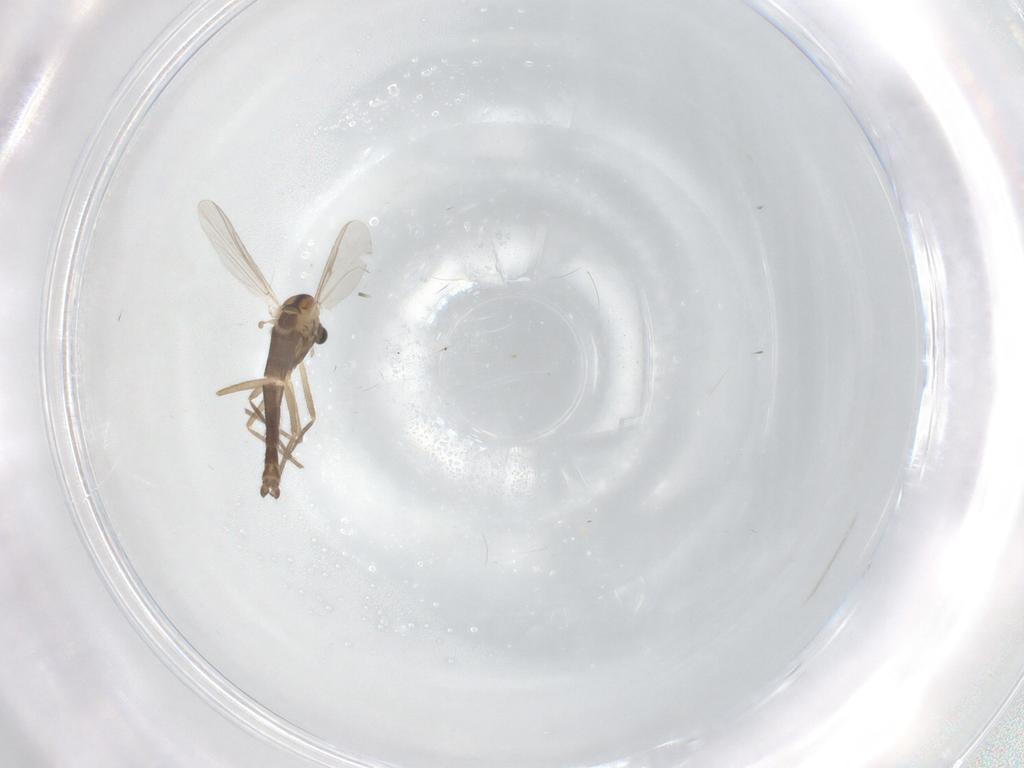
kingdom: Animalia
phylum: Arthropoda
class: Insecta
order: Diptera
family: Chironomidae
